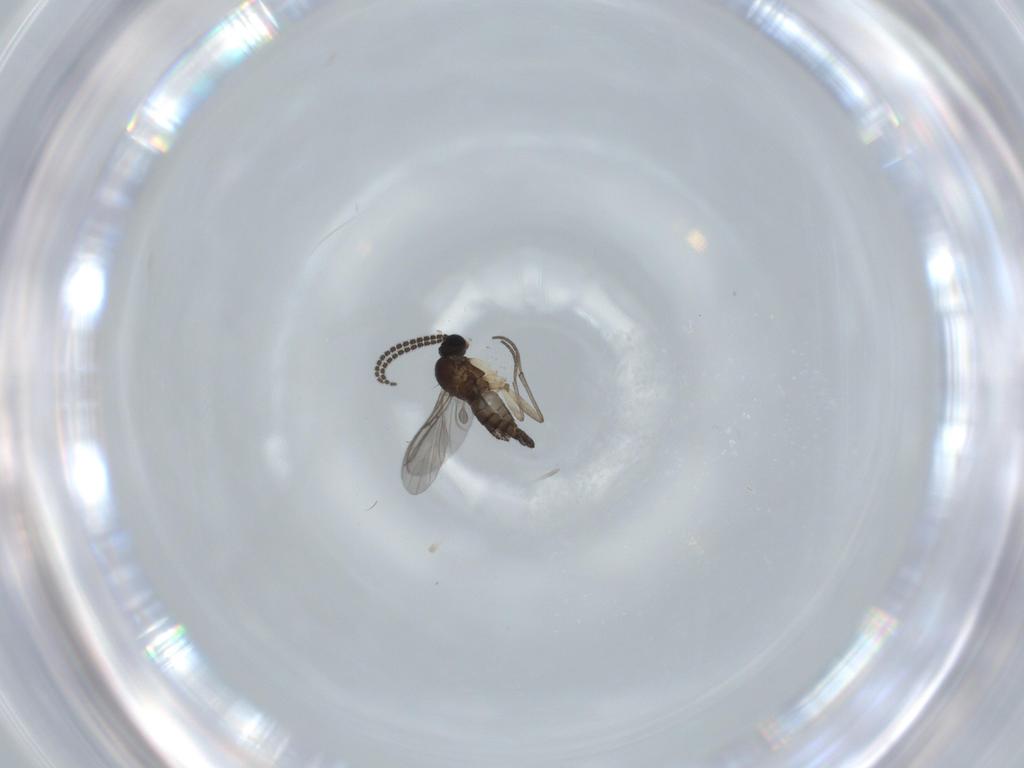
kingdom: Animalia
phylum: Arthropoda
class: Insecta
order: Diptera
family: Sciaridae
